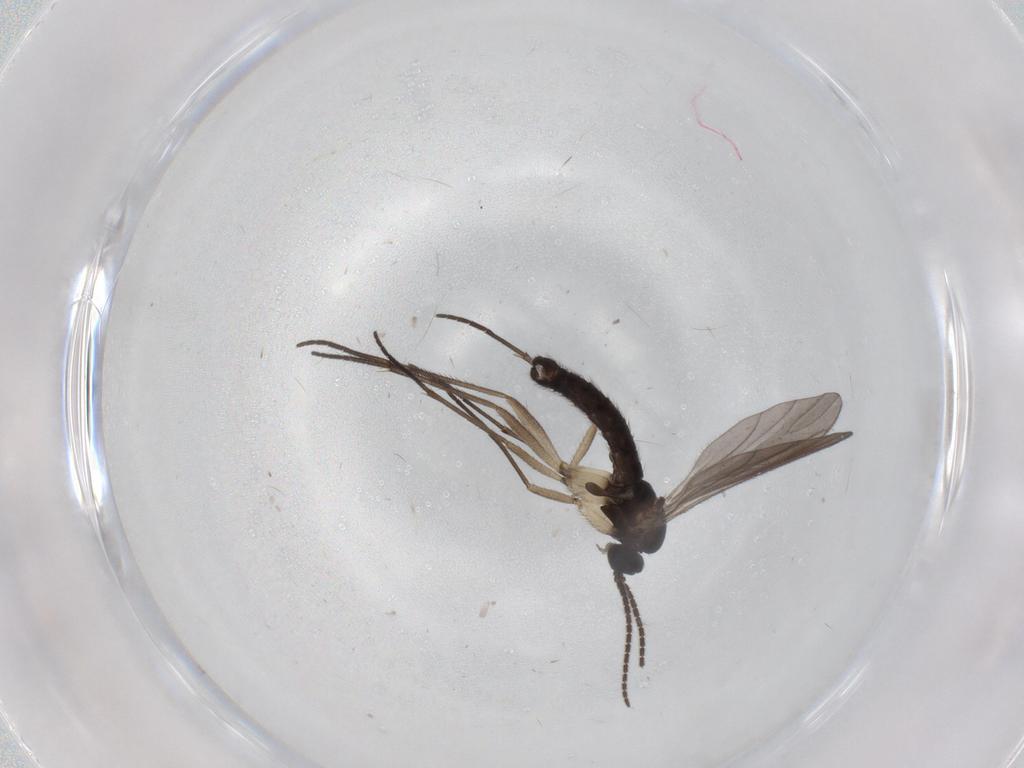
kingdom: Animalia
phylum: Arthropoda
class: Insecta
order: Diptera
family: Sciaridae
